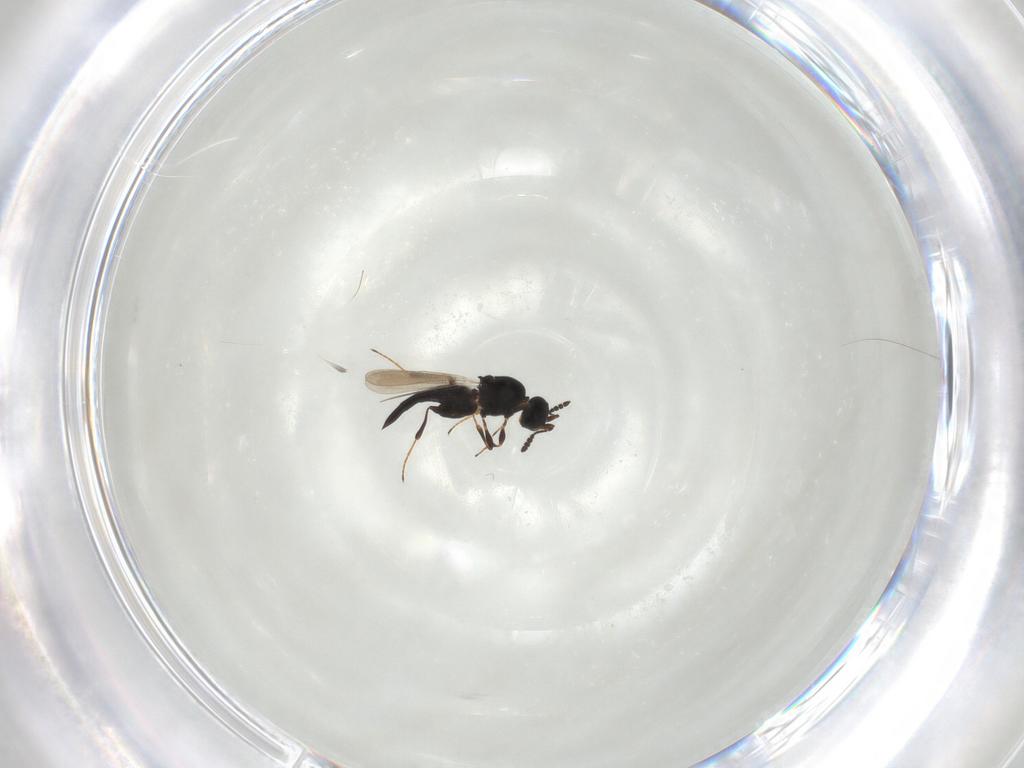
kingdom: Animalia
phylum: Arthropoda
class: Insecta
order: Hymenoptera
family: Platygastridae
